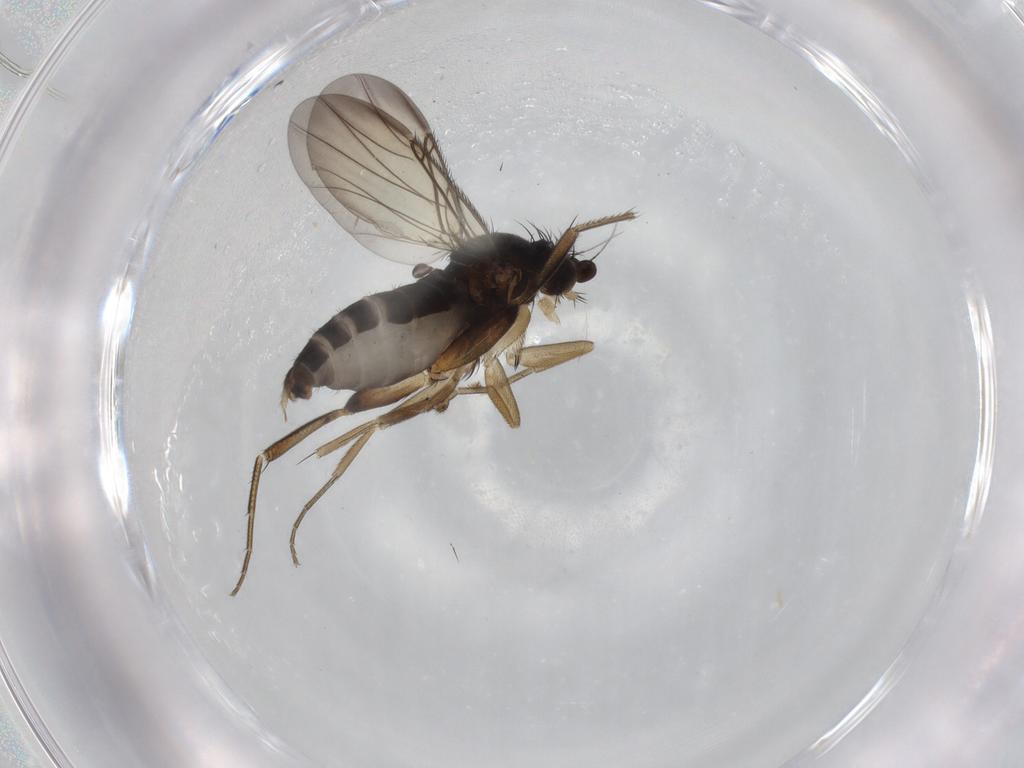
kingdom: Animalia
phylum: Arthropoda
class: Insecta
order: Diptera
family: Phoridae
